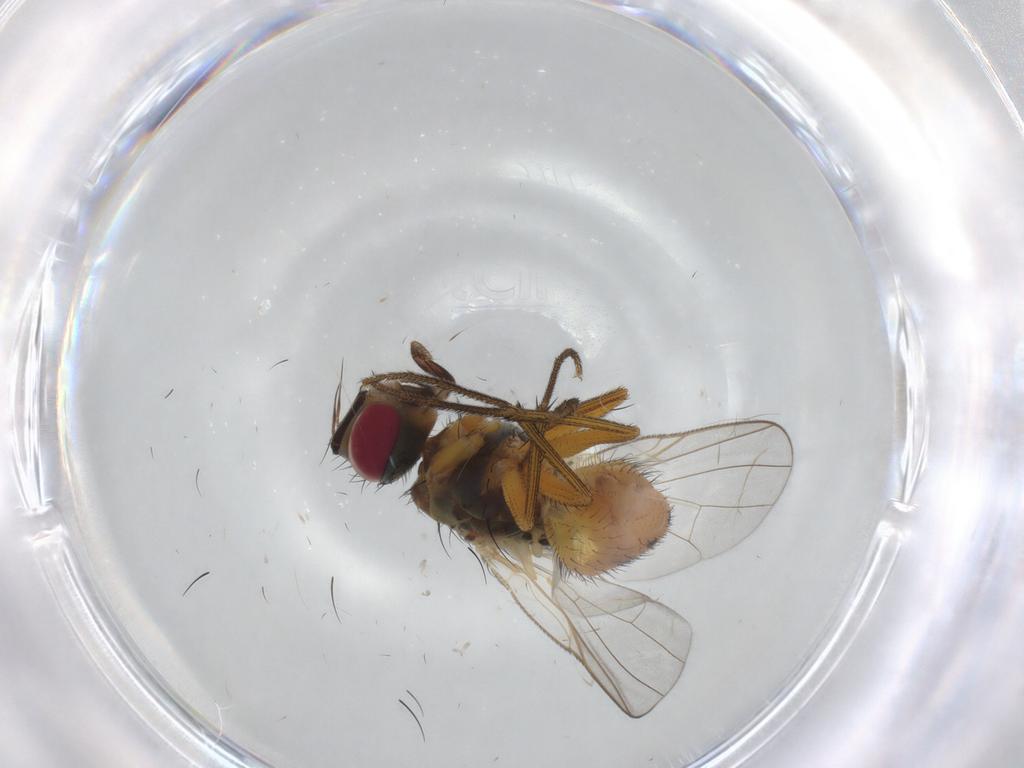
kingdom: Animalia
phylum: Arthropoda
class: Insecta
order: Diptera
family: Muscidae
